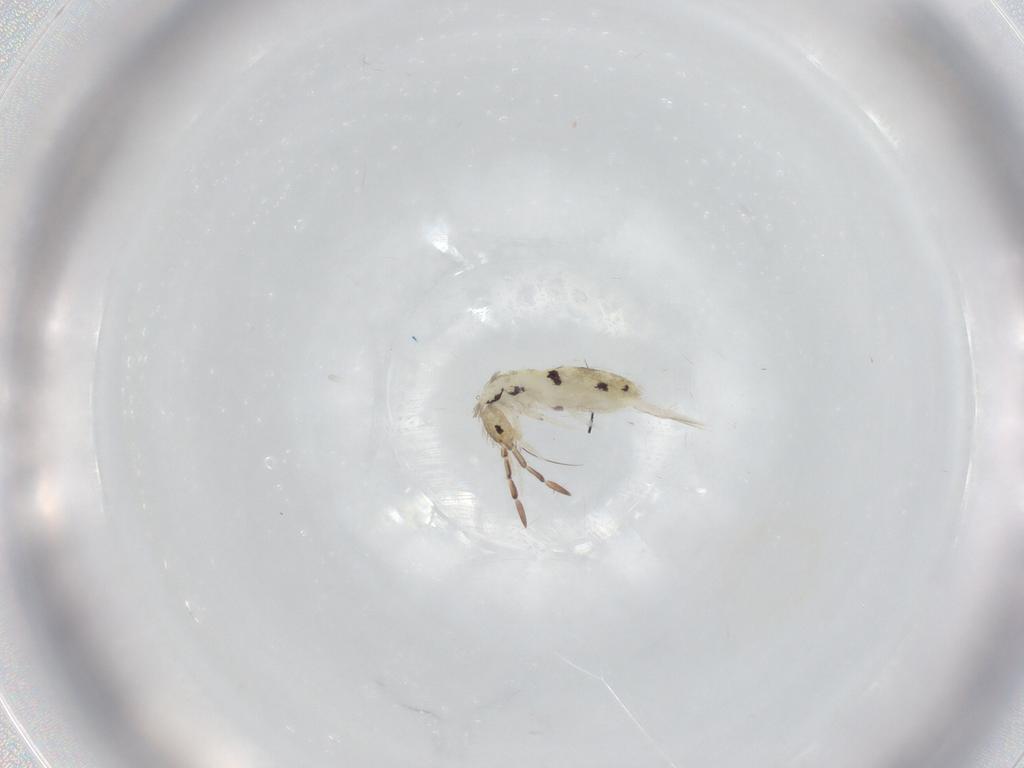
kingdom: Animalia
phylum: Arthropoda
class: Collembola
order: Entomobryomorpha
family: Entomobryidae
